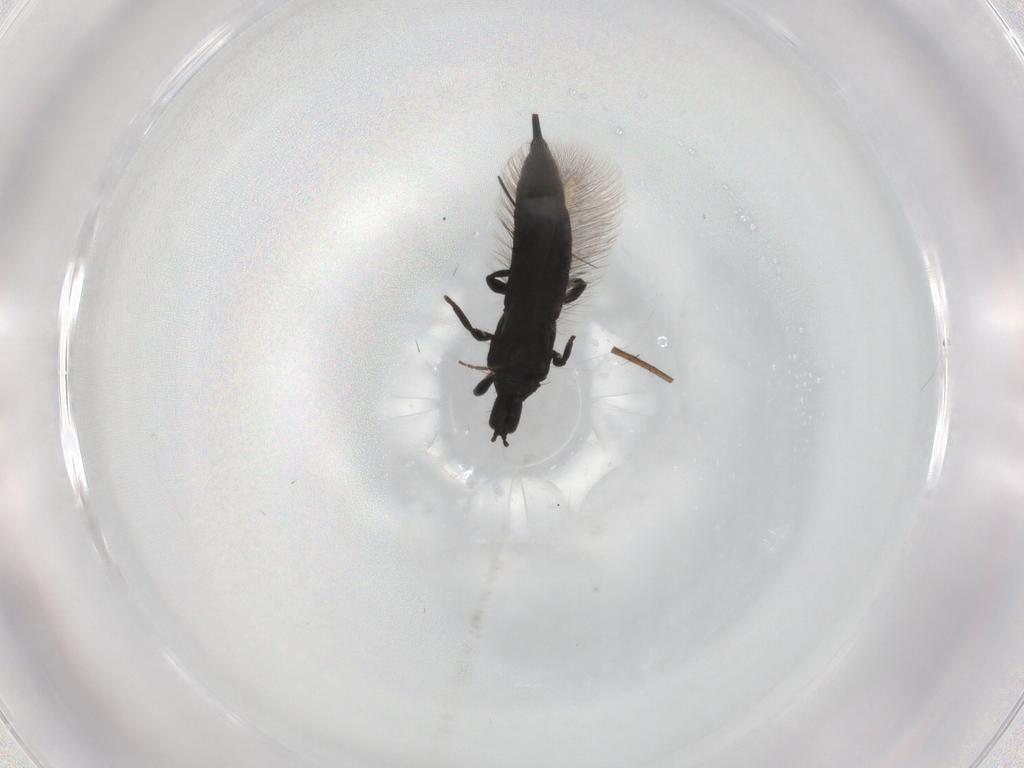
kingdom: Animalia
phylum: Arthropoda
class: Insecta
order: Thysanoptera
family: Phlaeothripidae
